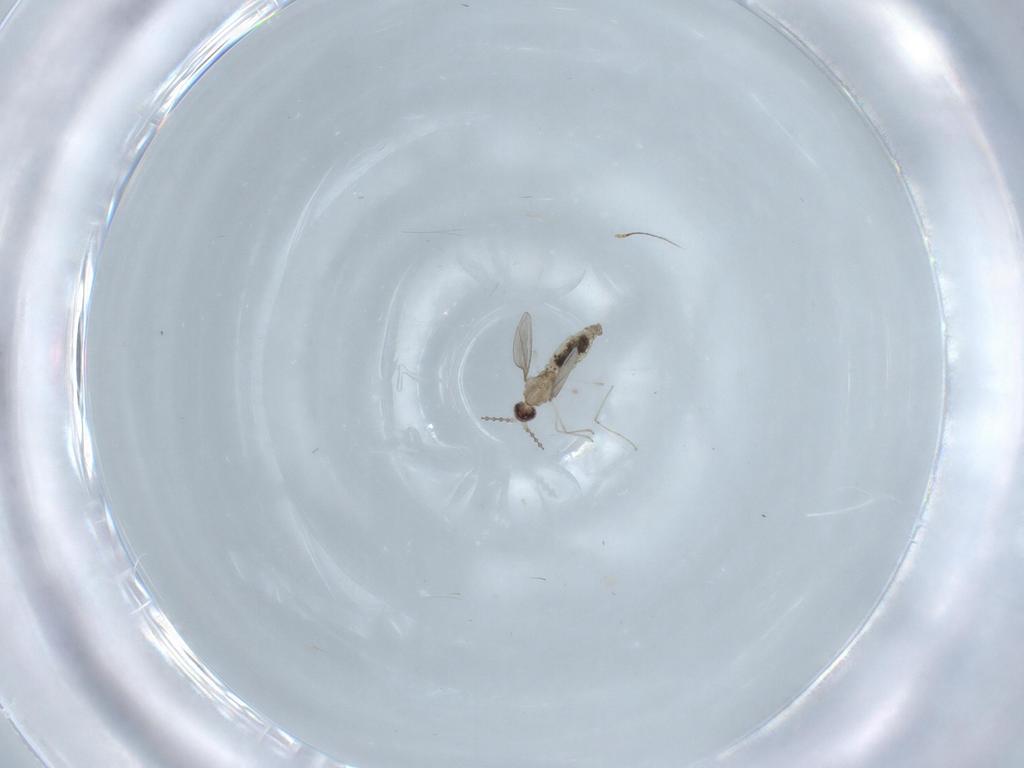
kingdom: Animalia
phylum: Arthropoda
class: Insecta
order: Diptera
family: Phoridae
